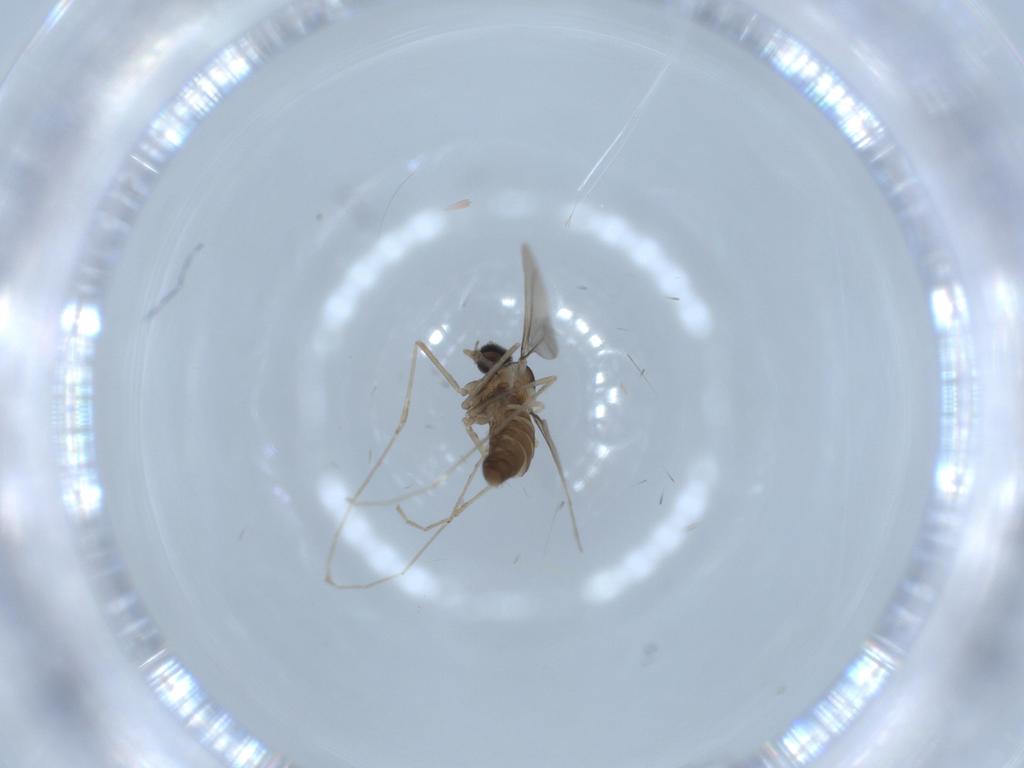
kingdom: Animalia
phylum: Arthropoda
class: Insecta
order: Diptera
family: Cecidomyiidae
